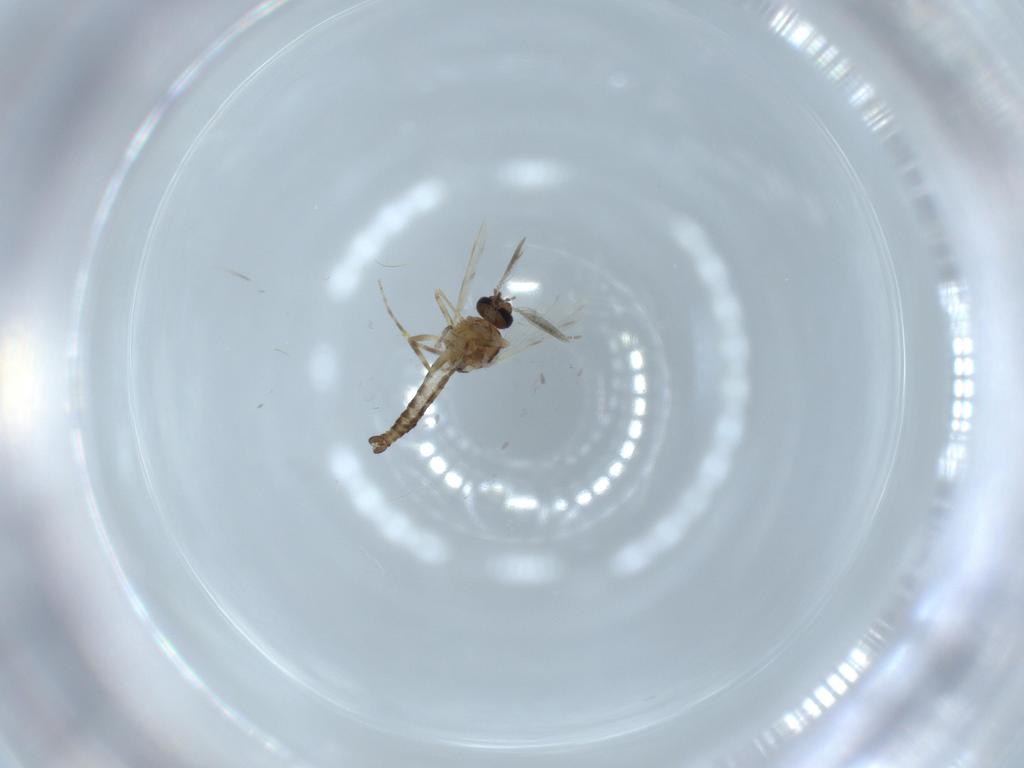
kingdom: Animalia
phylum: Arthropoda
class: Insecta
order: Diptera
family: Ceratopogonidae
